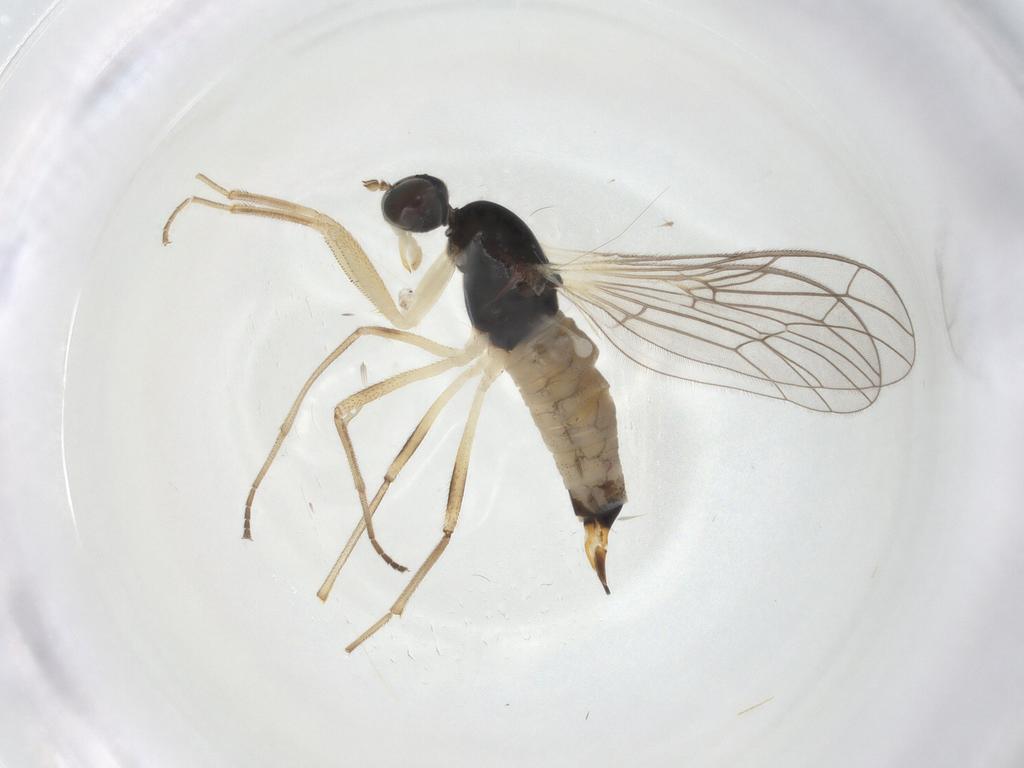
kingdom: Animalia
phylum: Arthropoda
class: Insecta
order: Diptera
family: Empididae
